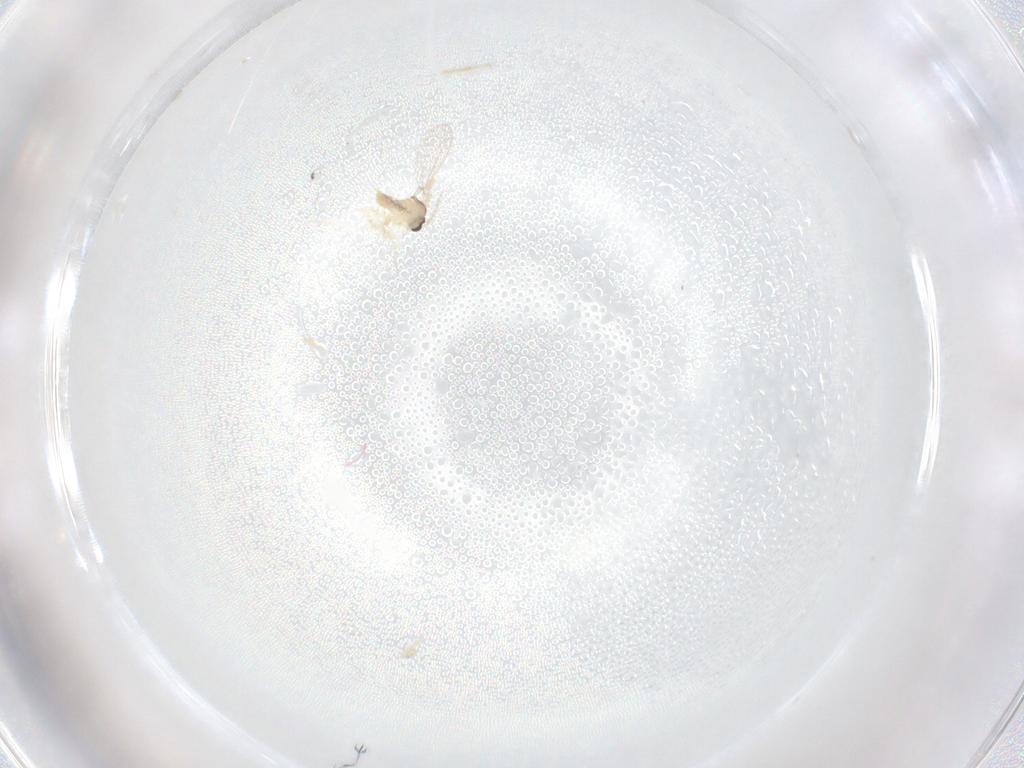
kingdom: Animalia
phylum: Arthropoda
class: Insecta
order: Diptera
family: Cecidomyiidae
